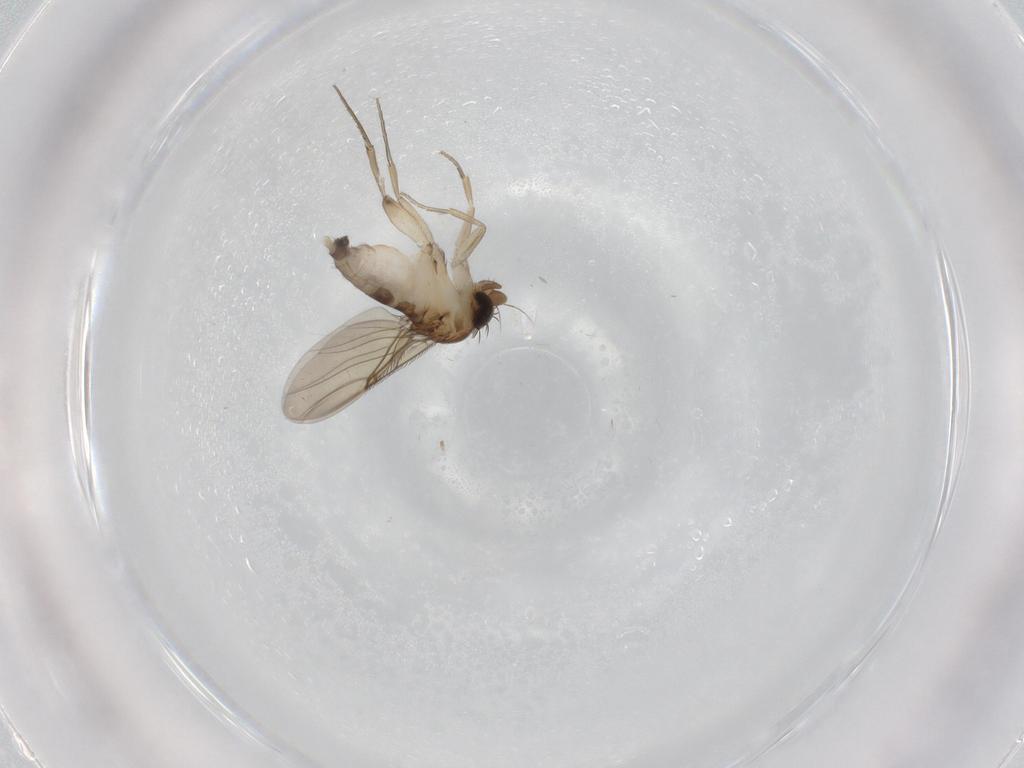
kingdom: Animalia
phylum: Arthropoda
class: Insecta
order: Diptera
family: Phoridae
